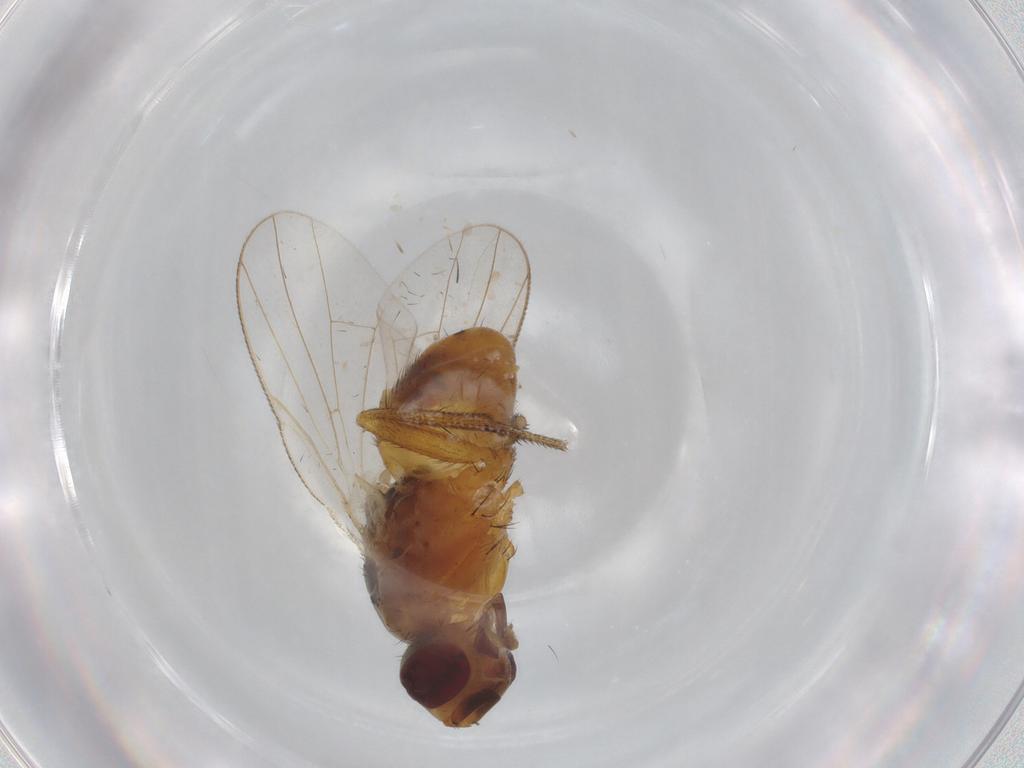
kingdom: Animalia
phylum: Arthropoda
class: Insecta
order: Diptera
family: Muscidae
